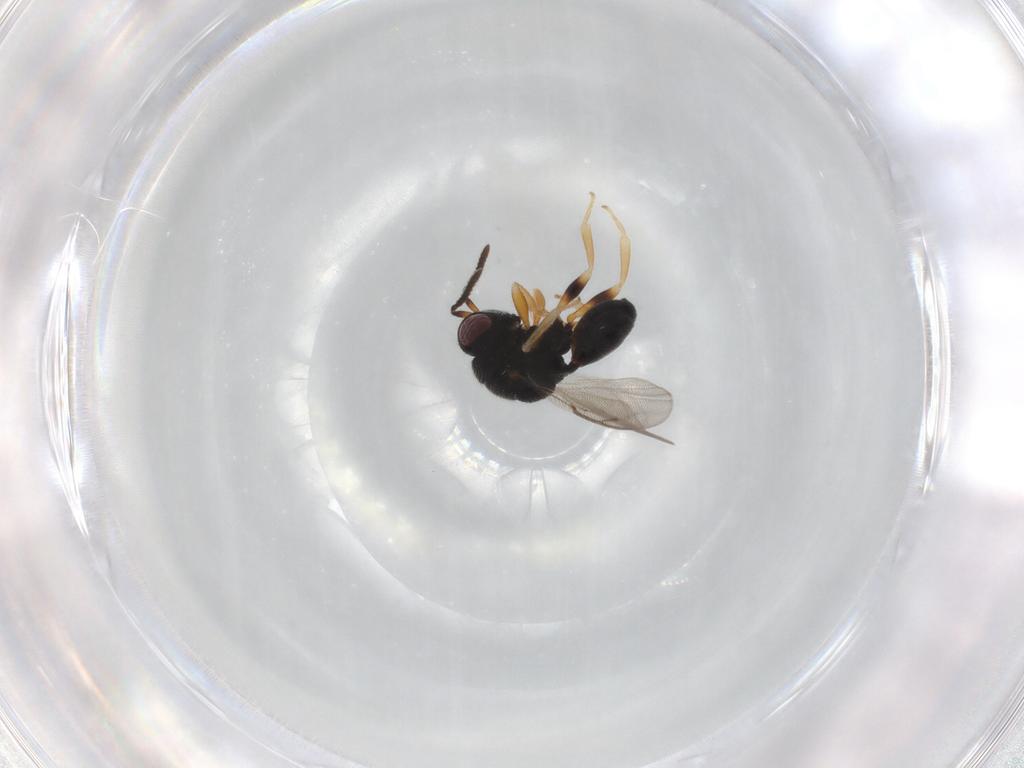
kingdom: Animalia
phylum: Arthropoda
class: Insecta
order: Hymenoptera
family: Eurytomidae
